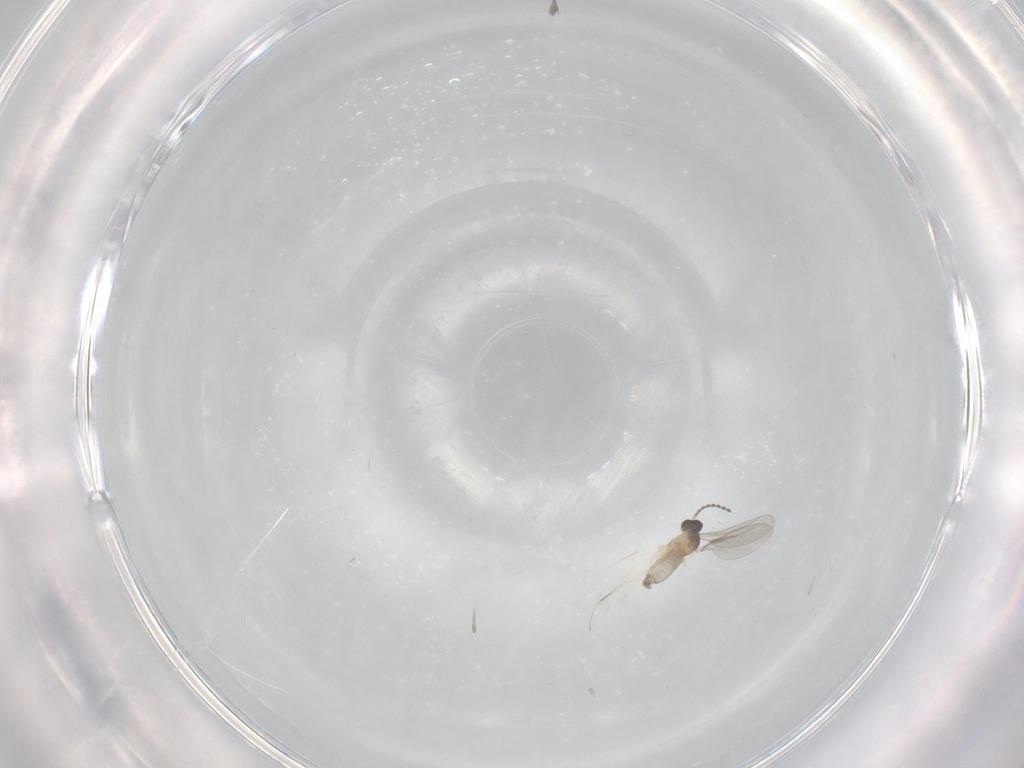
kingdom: Animalia
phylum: Arthropoda
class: Insecta
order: Diptera
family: Cecidomyiidae
